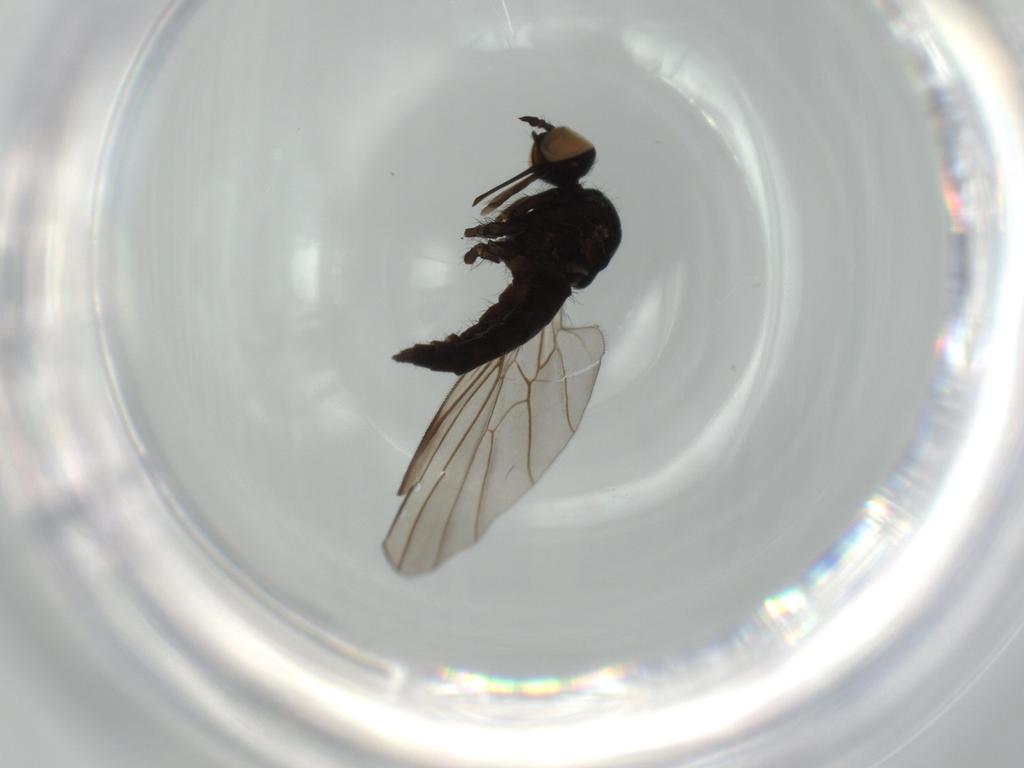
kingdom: Animalia
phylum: Arthropoda
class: Insecta
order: Diptera
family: Empididae
